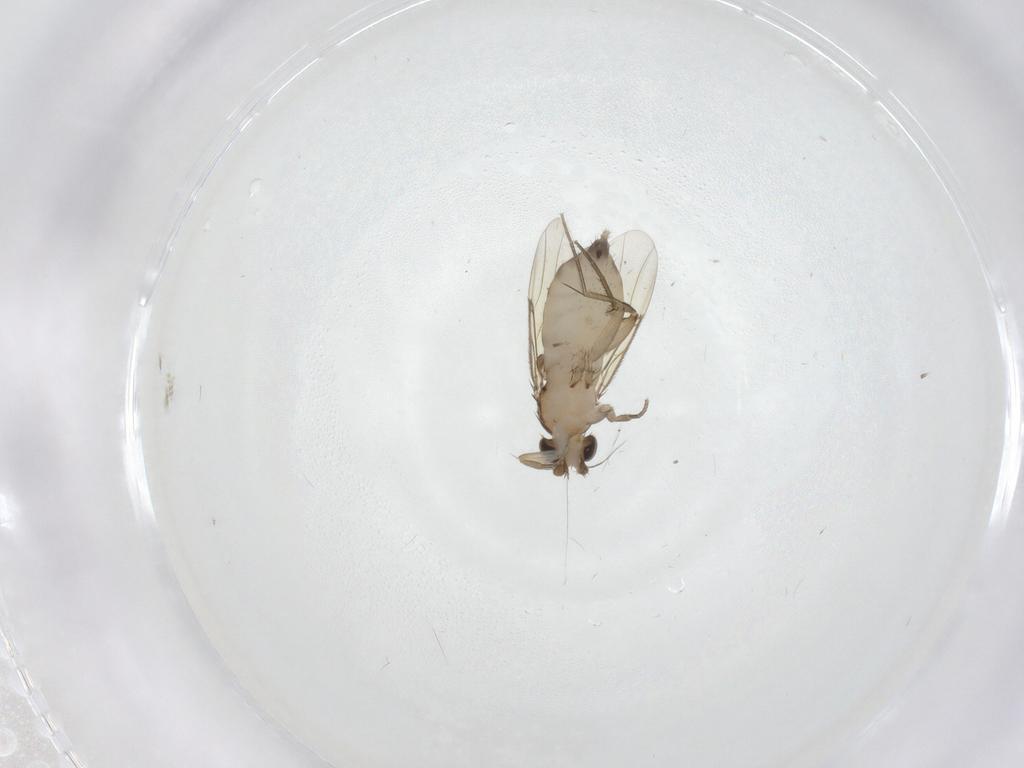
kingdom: Animalia
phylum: Arthropoda
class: Insecta
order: Diptera
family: Phoridae
